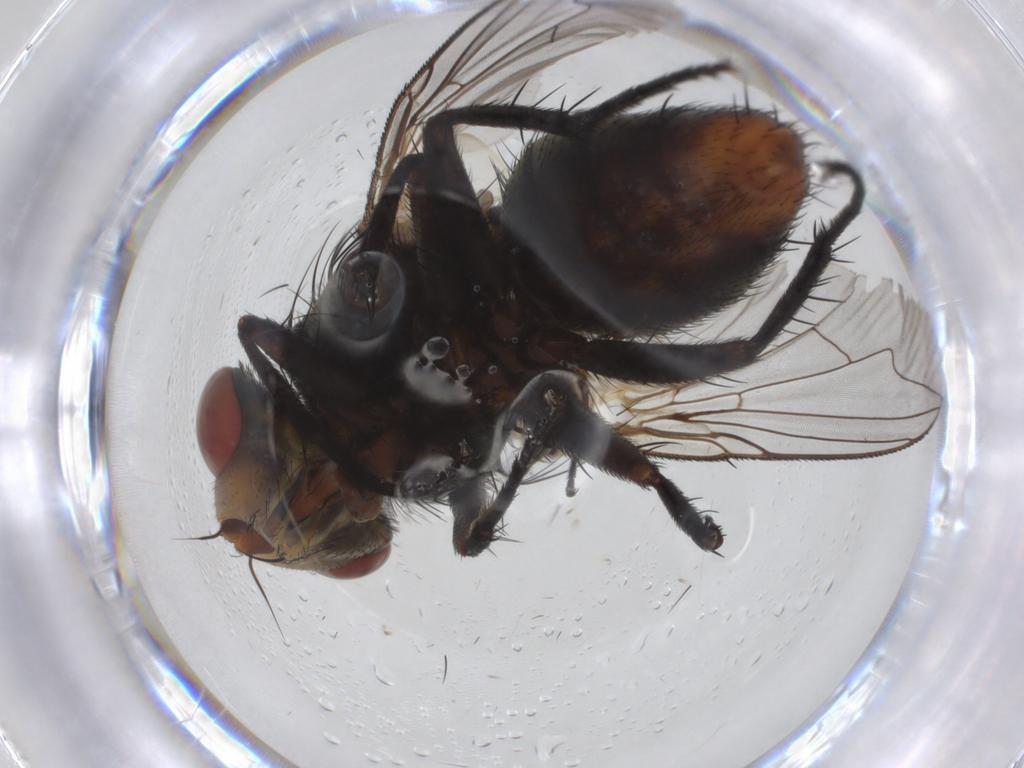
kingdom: Animalia
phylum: Arthropoda
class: Insecta
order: Diptera
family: Sarcophagidae
